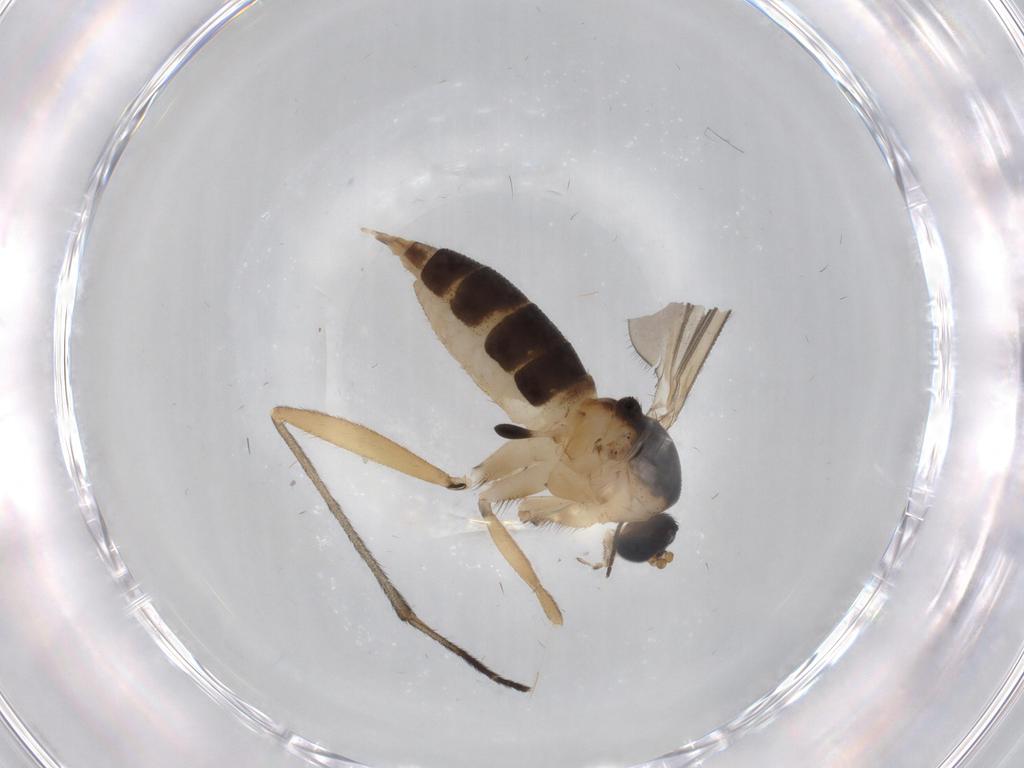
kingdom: Animalia
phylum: Arthropoda
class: Insecta
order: Diptera
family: Sciaridae
